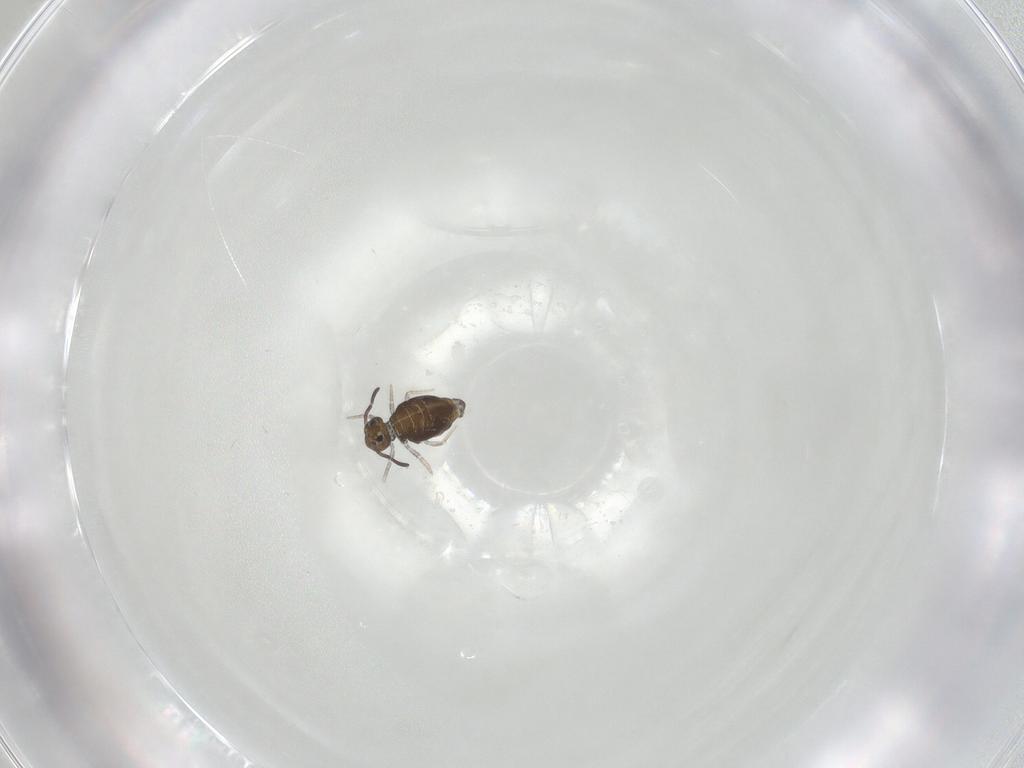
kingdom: Animalia
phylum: Arthropoda
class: Collembola
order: Symphypleona
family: Katiannidae
